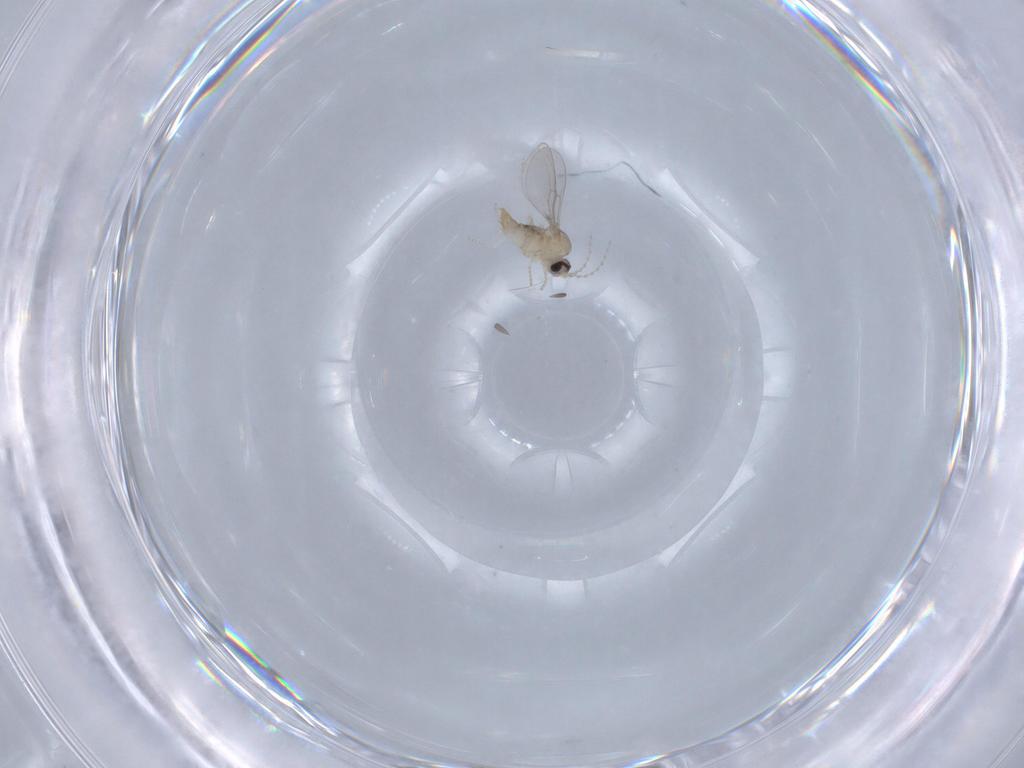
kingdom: Animalia
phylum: Arthropoda
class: Insecta
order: Diptera
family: Cecidomyiidae
